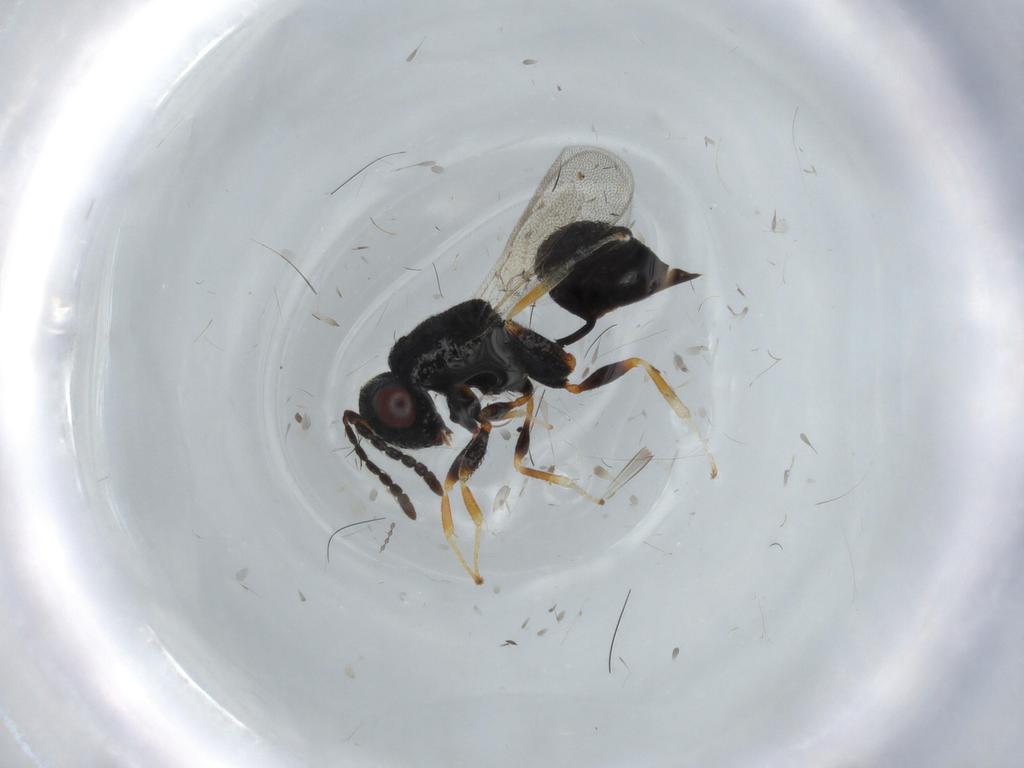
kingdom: Animalia
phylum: Arthropoda
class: Insecta
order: Hymenoptera
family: Eurytomidae
